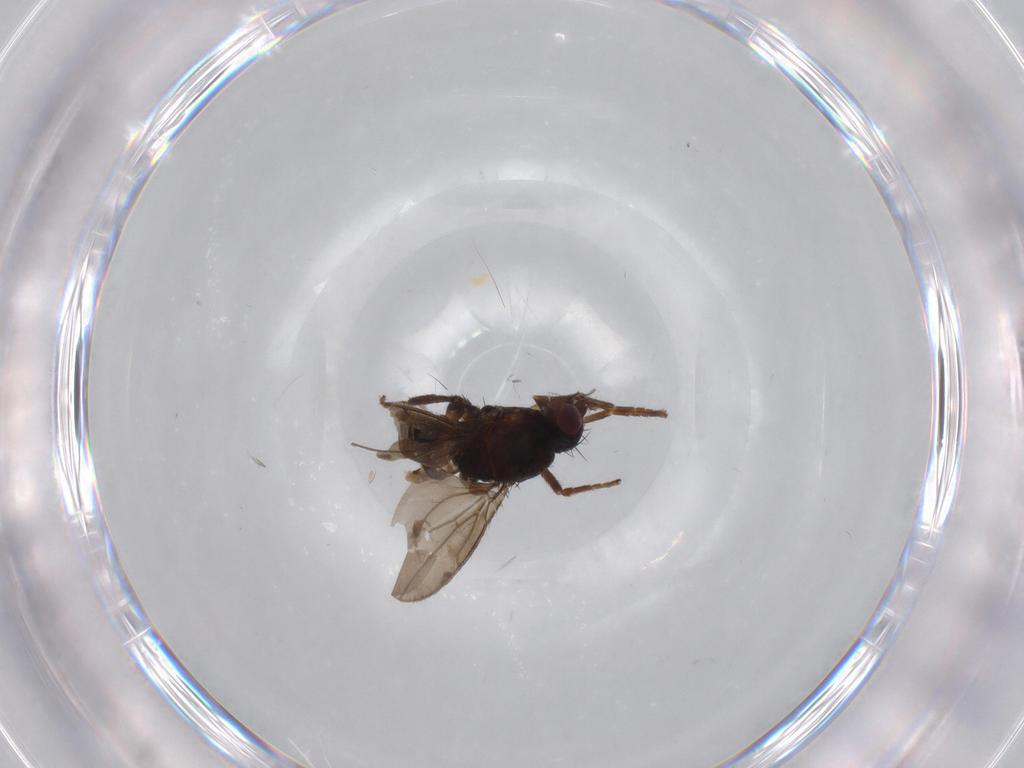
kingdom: Animalia
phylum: Arthropoda
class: Insecta
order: Diptera
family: Sphaeroceridae
